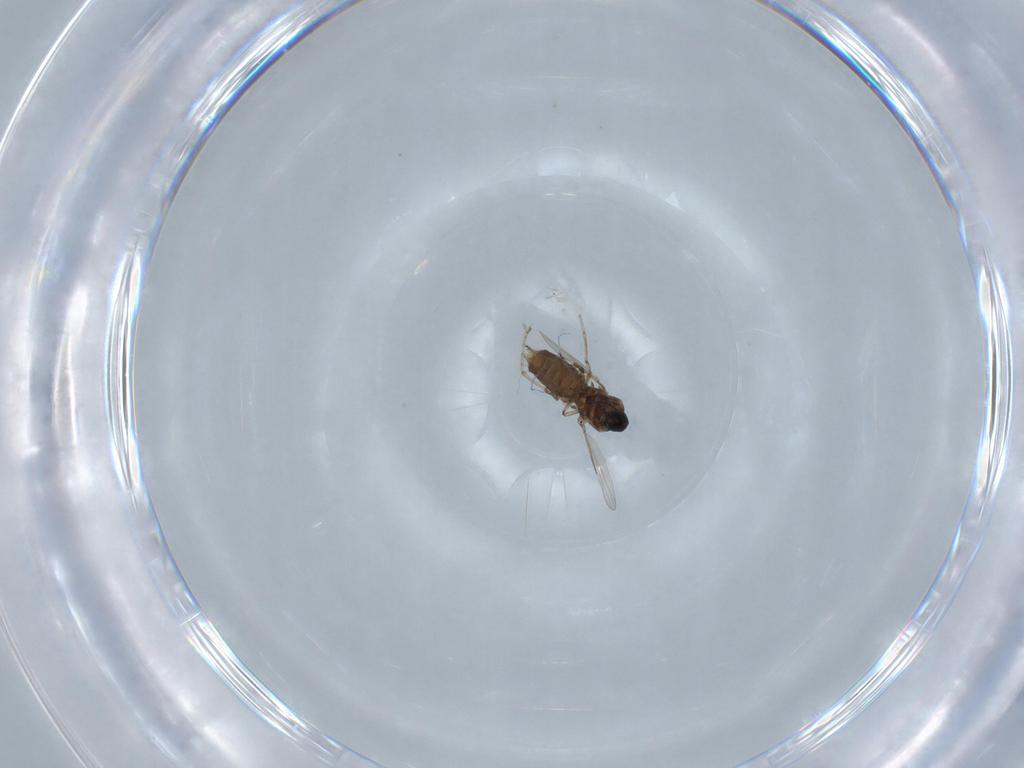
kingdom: Animalia
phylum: Arthropoda
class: Insecta
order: Diptera
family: Ceratopogonidae
